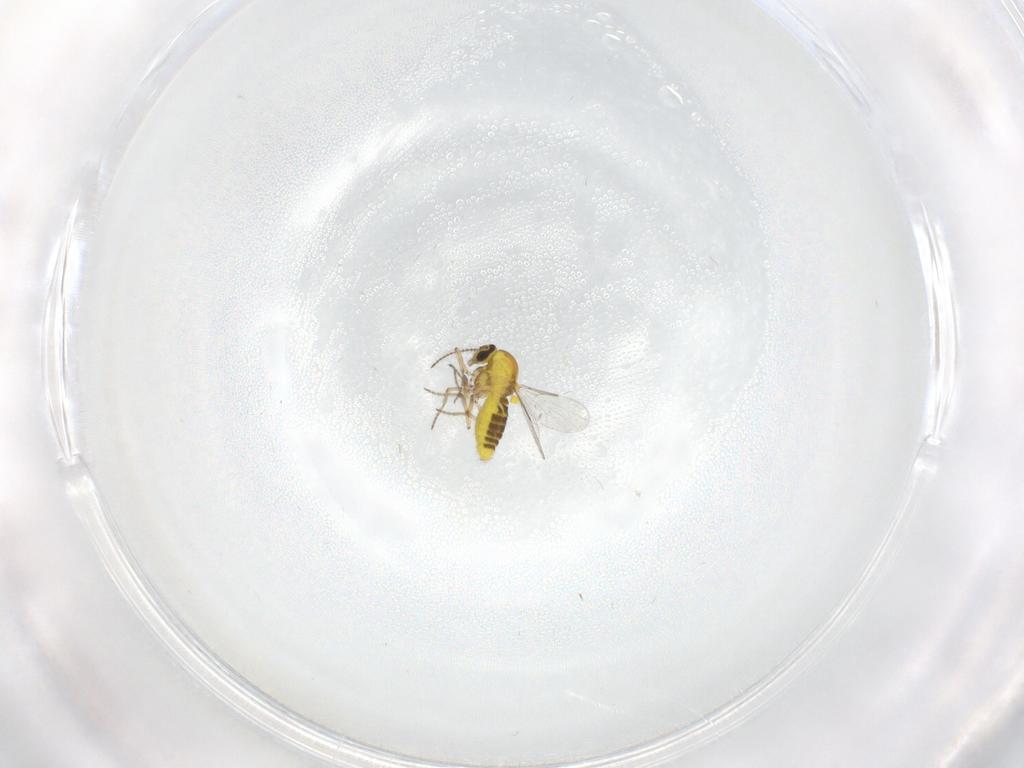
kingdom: Animalia
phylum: Arthropoda
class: Insecta
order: Diptera
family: Ceratopogonidae
